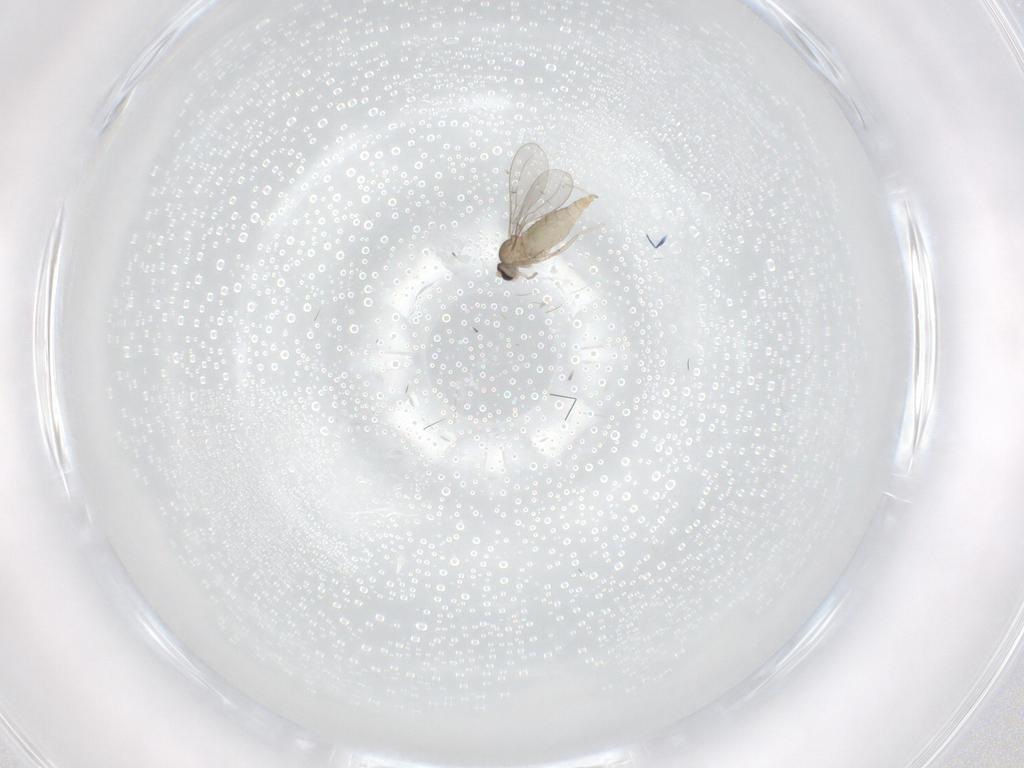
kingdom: Animalia
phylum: Arthropoda
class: Insecta
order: Diptera
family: Cecidomyiidae
